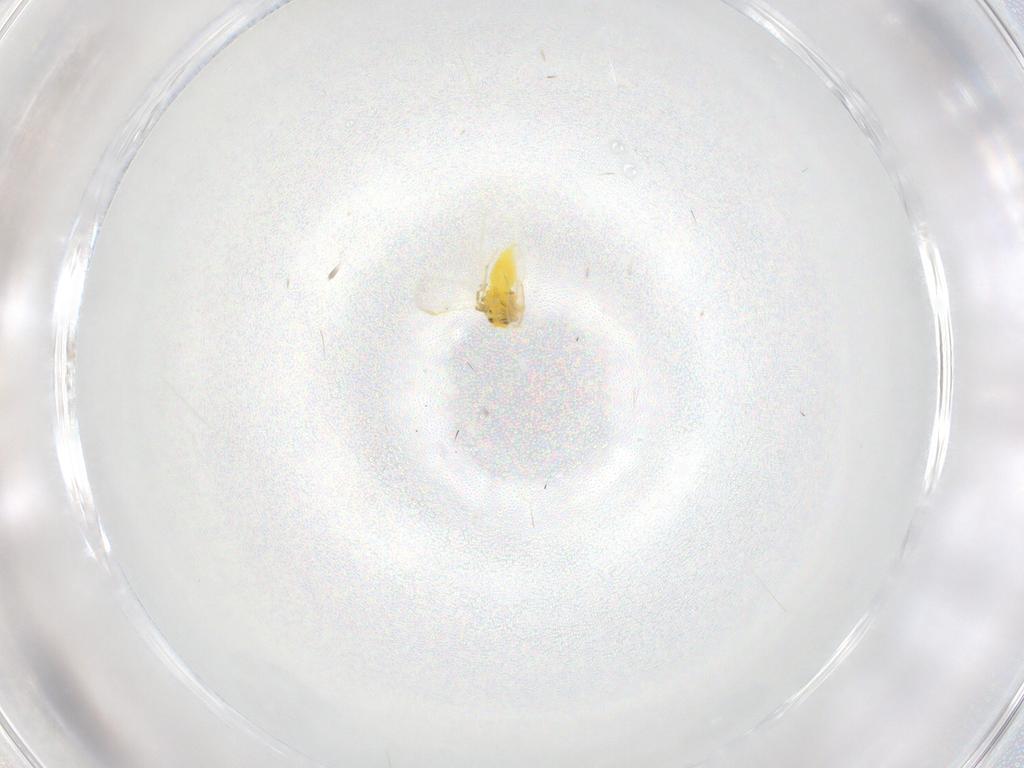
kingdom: Animalia
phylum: Arthropoda
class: Insecta
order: Hemiptera
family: Aleyrodidae
